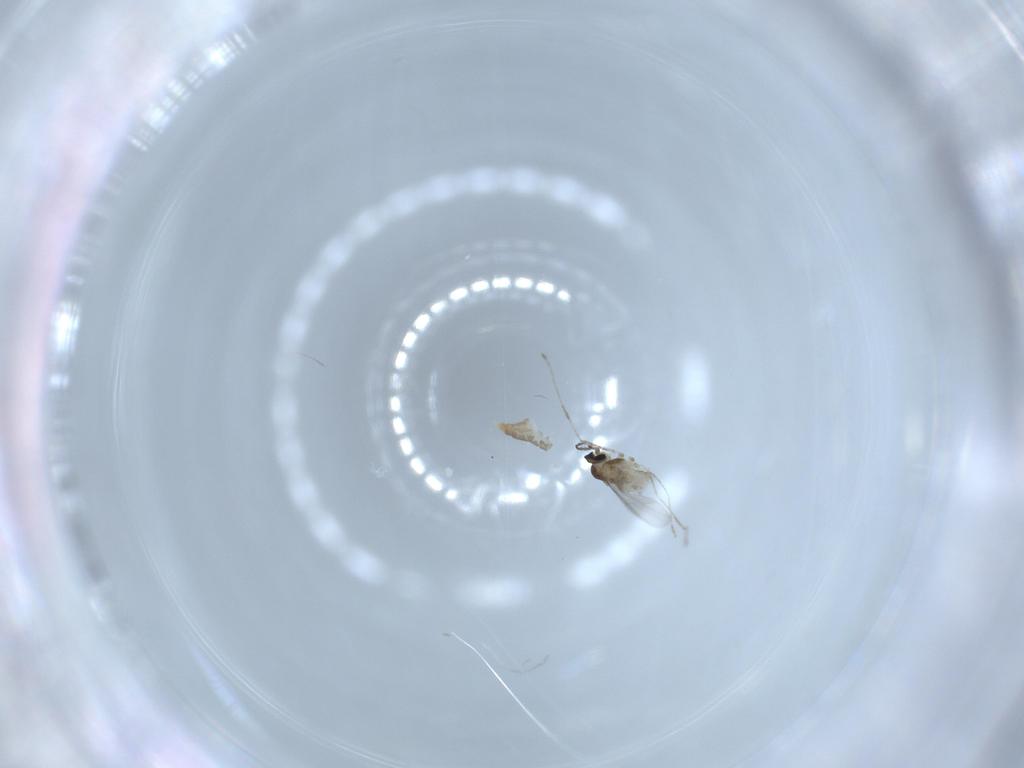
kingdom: Animalia
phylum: Arthropoda
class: Insecta
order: Diptera
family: Cecidomyiidae
